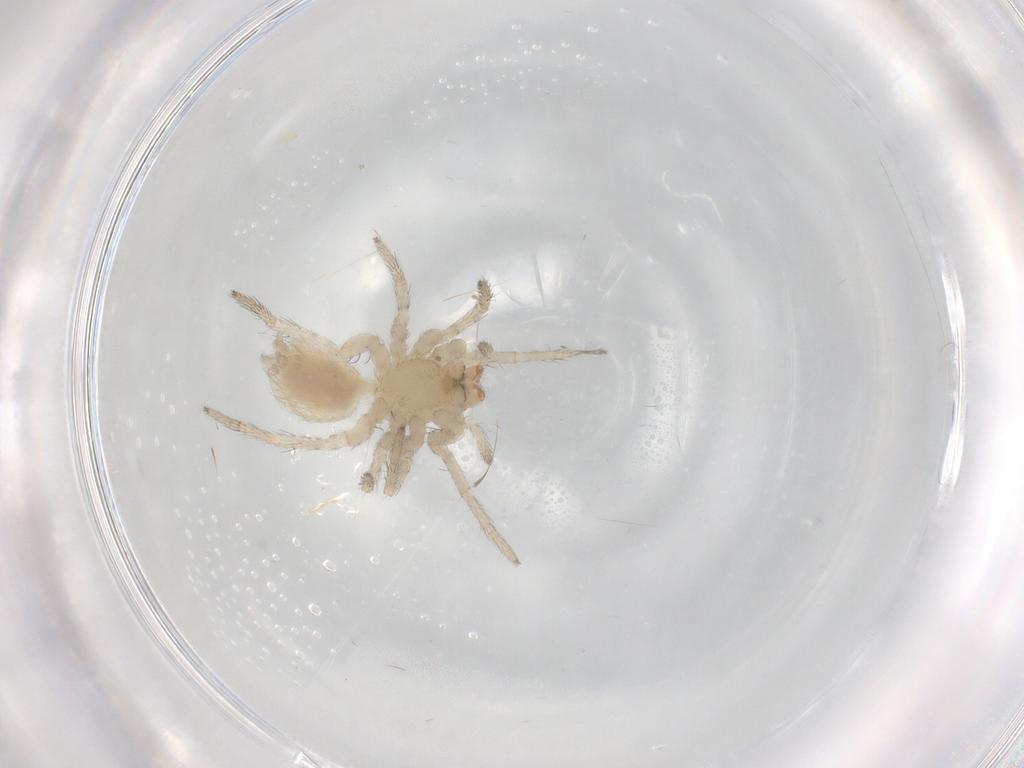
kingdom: Animalia
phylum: Arthropoda
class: Arachnida
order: Araneae
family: Anyphaenidae
